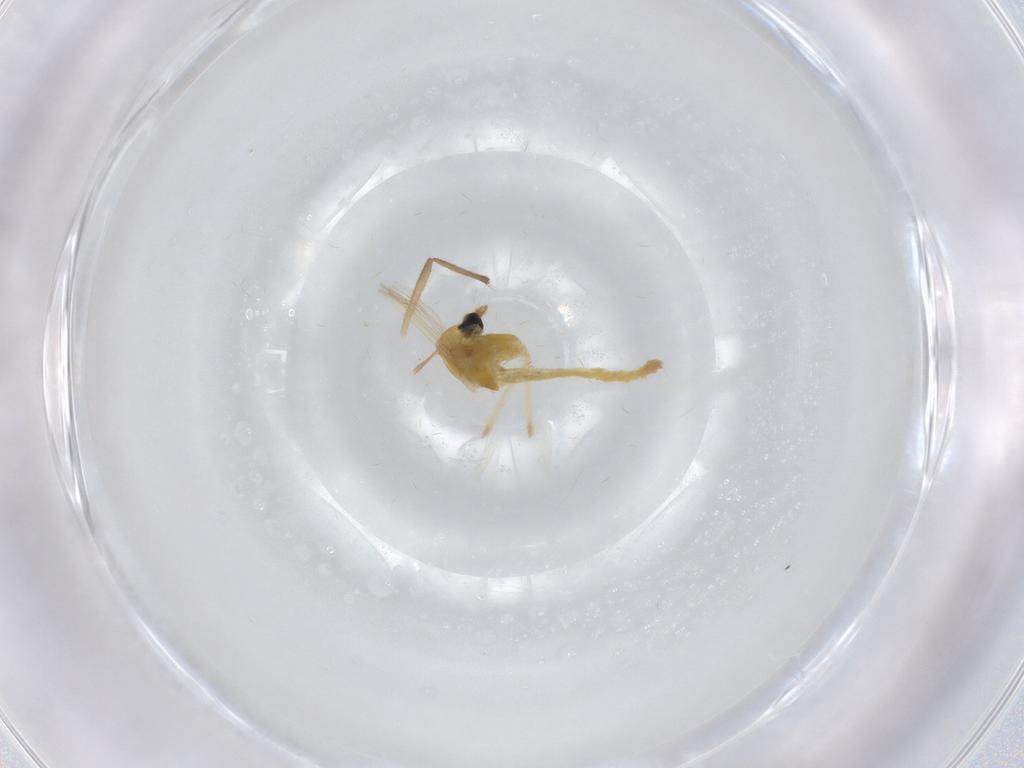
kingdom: Animalia
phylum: Arthropoda
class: Insecta
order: Diptera
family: Chironomidae
